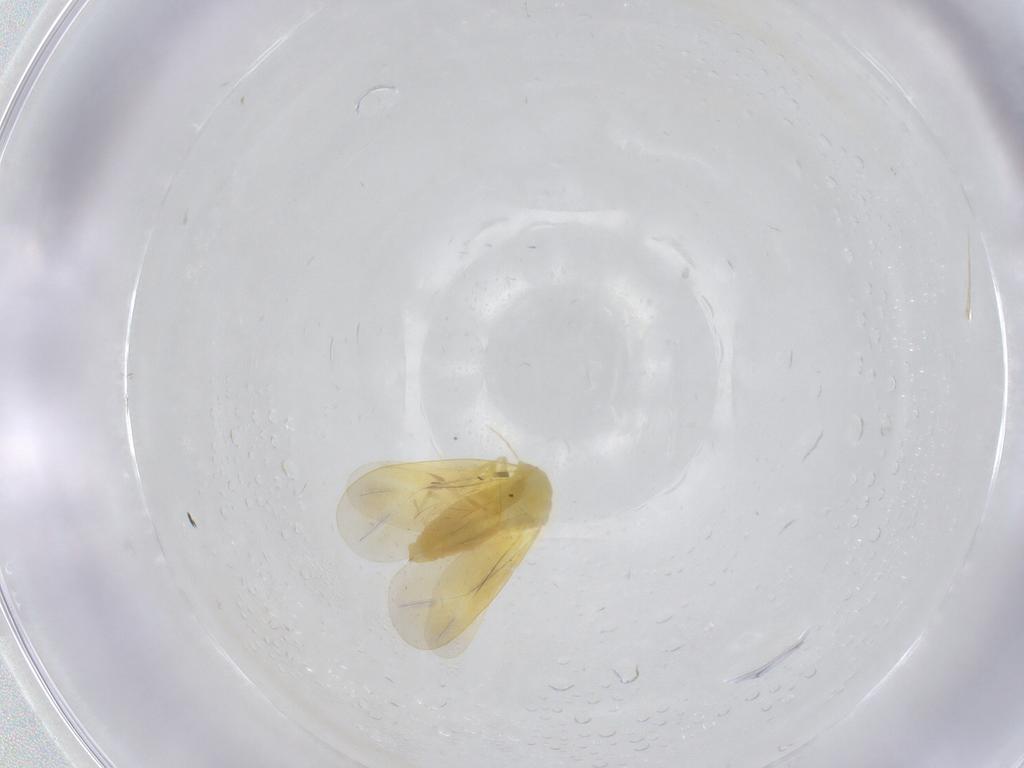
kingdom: Animalia
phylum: Arthropoda
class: Insecta
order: Hemiptera
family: Aleyrodidae
